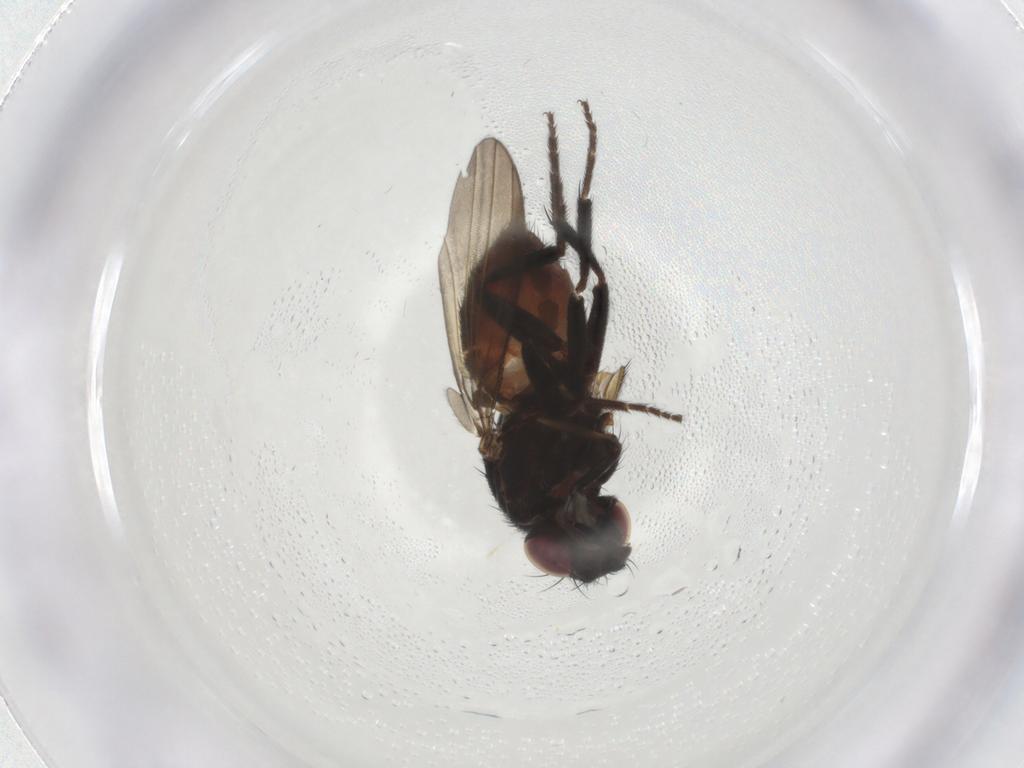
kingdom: Animalia
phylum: Arthropoda
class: Insecta
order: Diptera
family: Milichiidae
